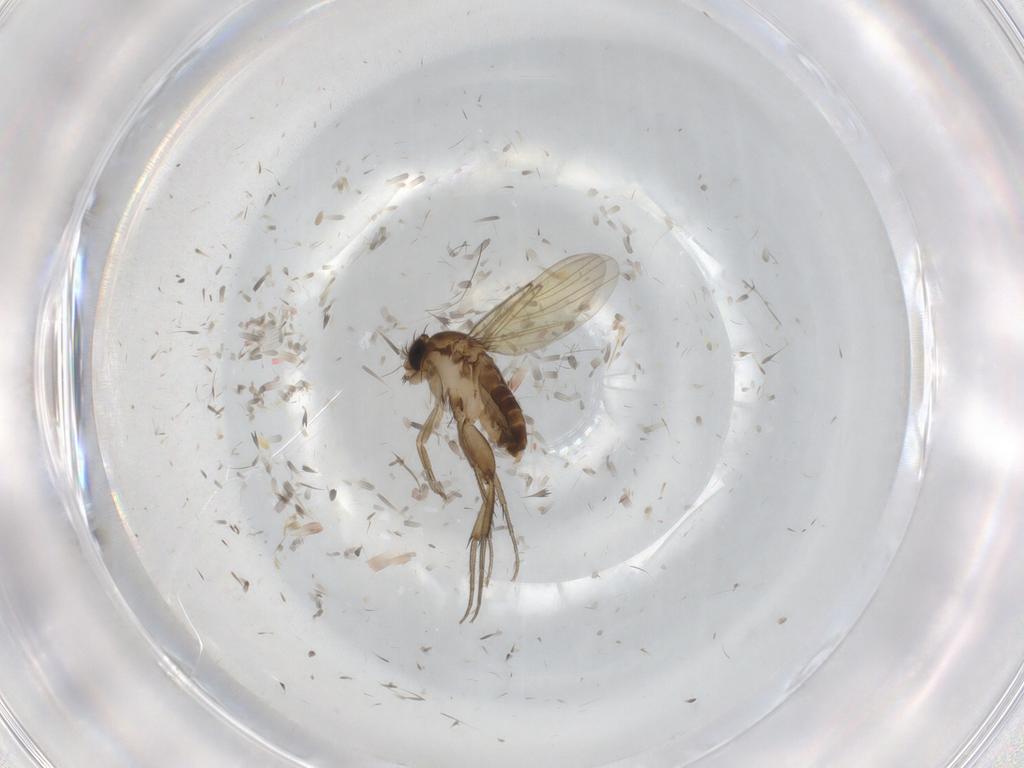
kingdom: Animalia
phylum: Arthropoda
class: Insecta
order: Diptera
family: Phoridae
